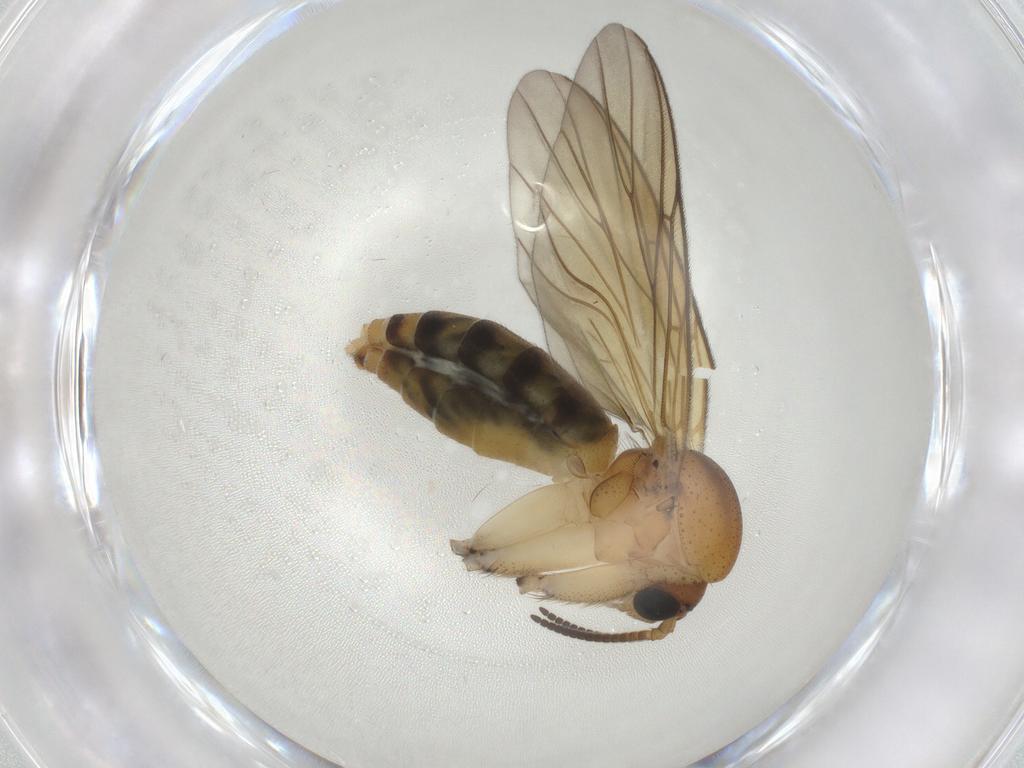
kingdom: Animalia
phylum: Arthropoda
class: Insecta
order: Diptera
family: Mycetophilidae
